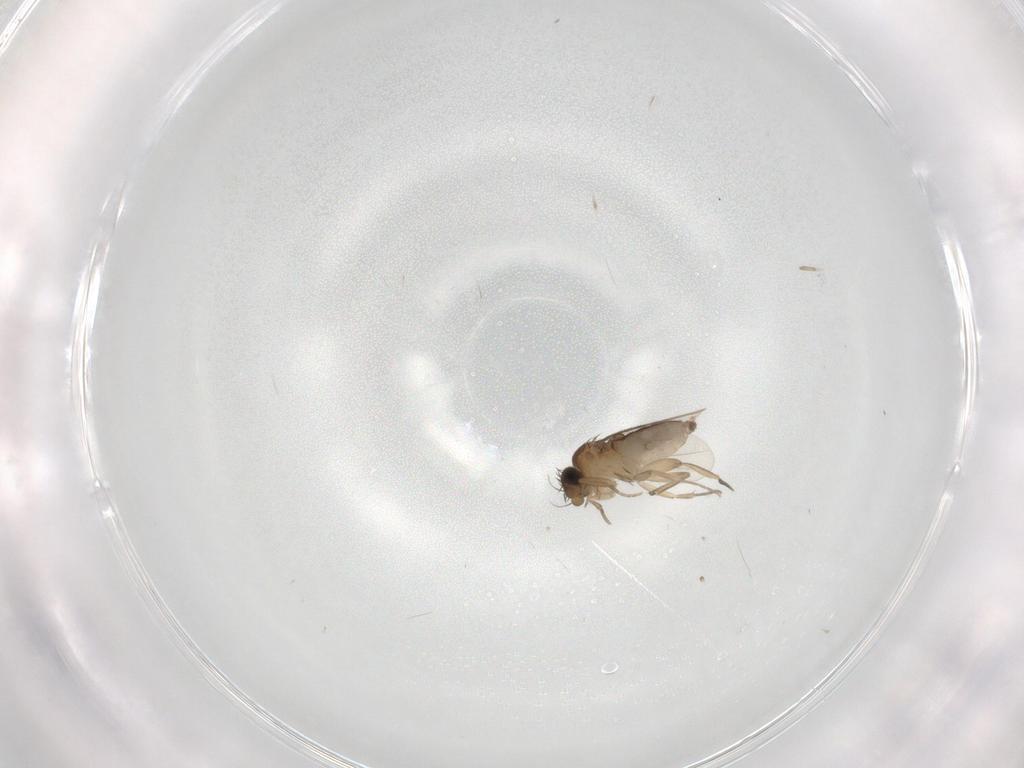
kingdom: Animalia
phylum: Arthropoda
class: Insecta
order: Diptera
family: Phoridae
